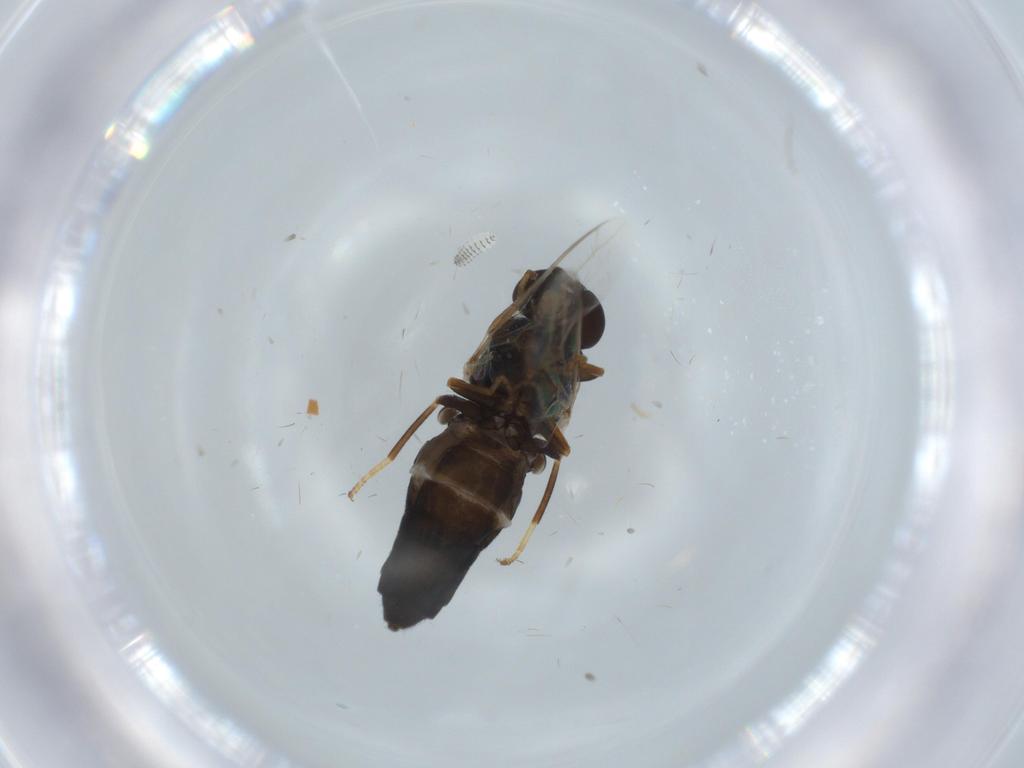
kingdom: Animalia
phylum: Arthropoda
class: Insecta
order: Diptera
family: Scenopinidae
